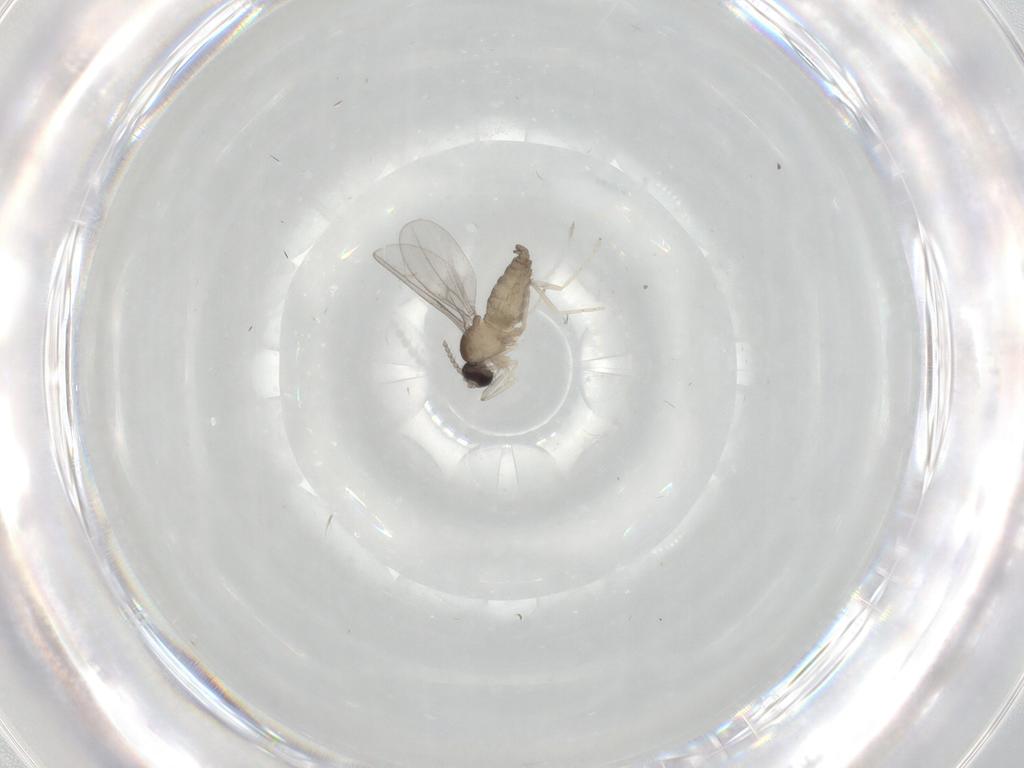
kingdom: Animalia
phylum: Arthropoda
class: Insecta
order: Diptera
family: Cecidomyiidae
